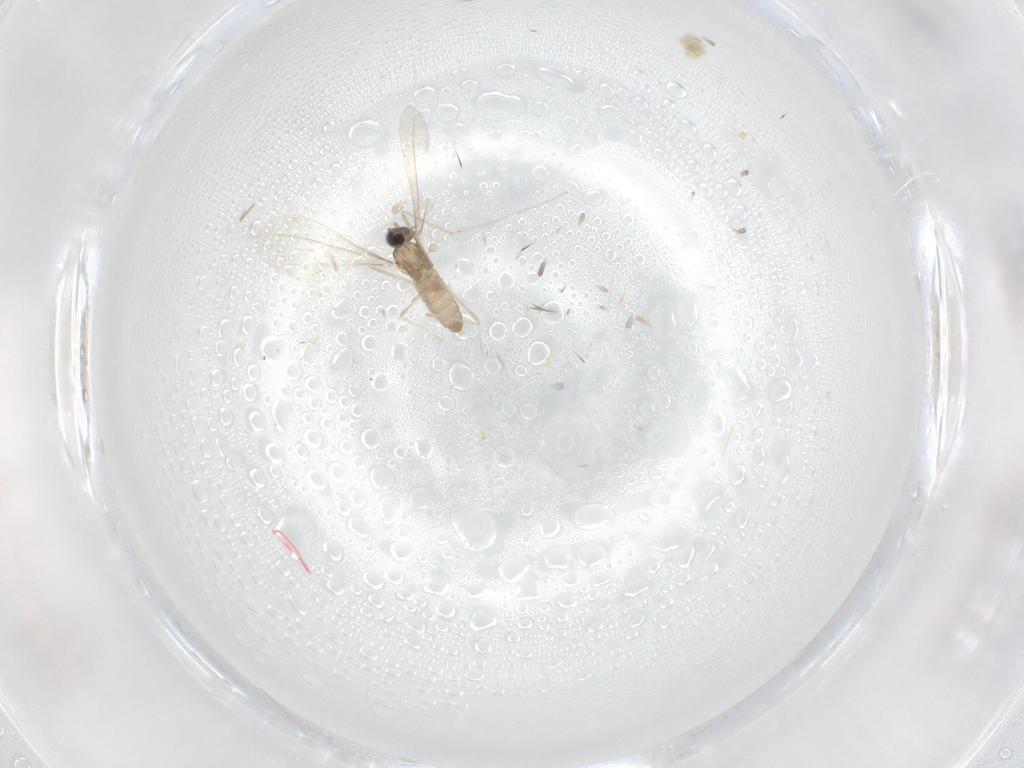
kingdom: Animalia
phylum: Arthropoda
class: Insecta
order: Diptera
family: Cecidomyiidae
